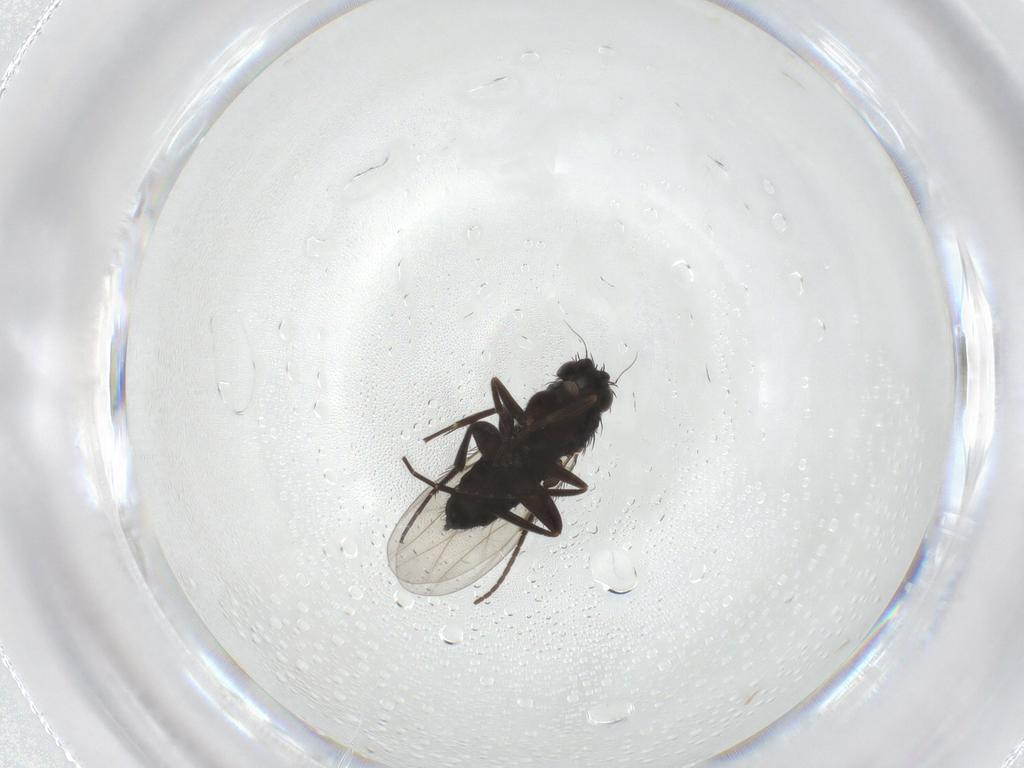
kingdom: Animalia
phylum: Arthropoda
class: Insecta
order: Diptera
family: Phoridae
